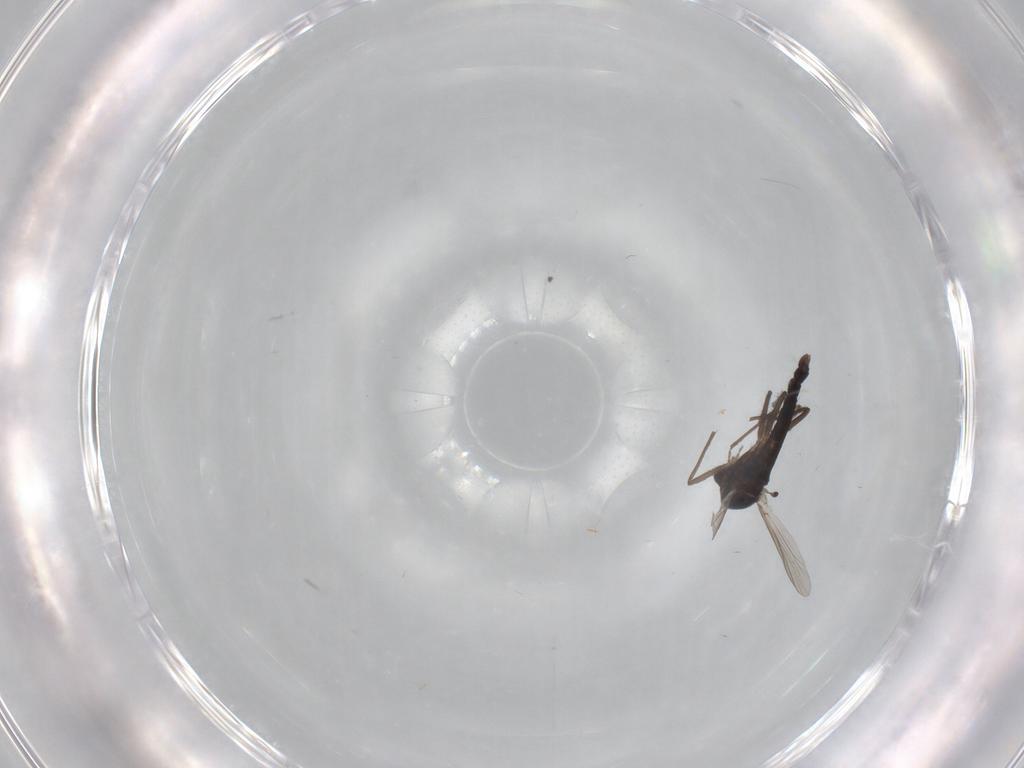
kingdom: Animalia
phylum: Arthropoda
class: Insecta
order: Diptera
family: Chironomidae
